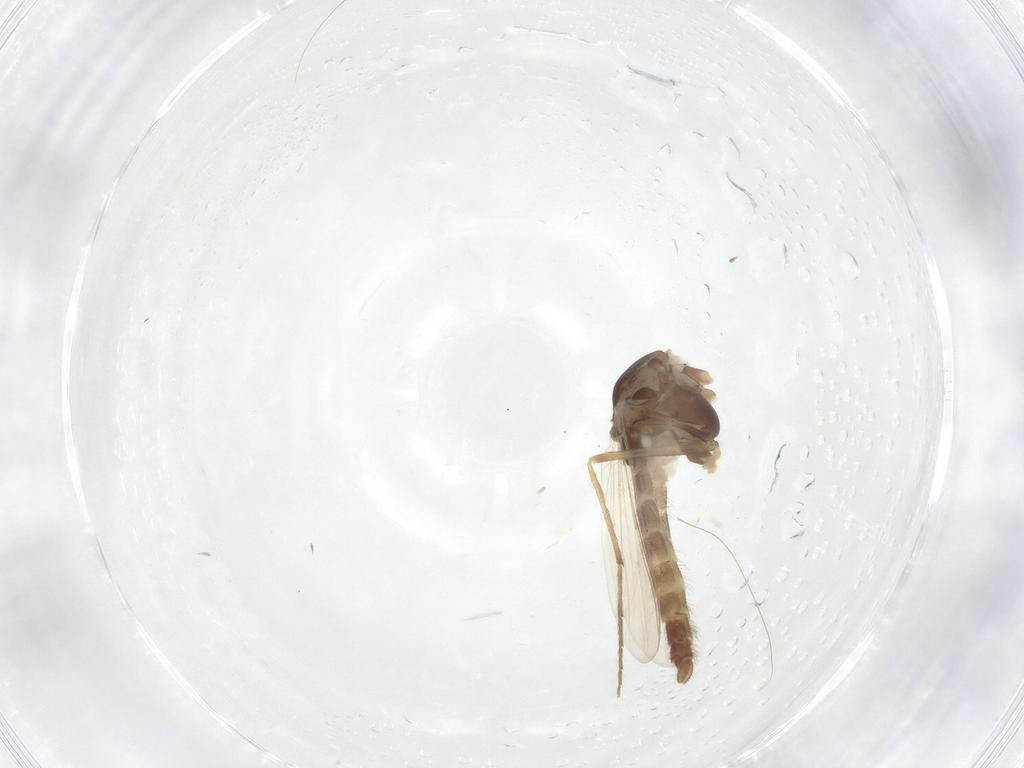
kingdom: Animalia
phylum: Arthropoda
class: Insecta
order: Diptera
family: Chironomidae
